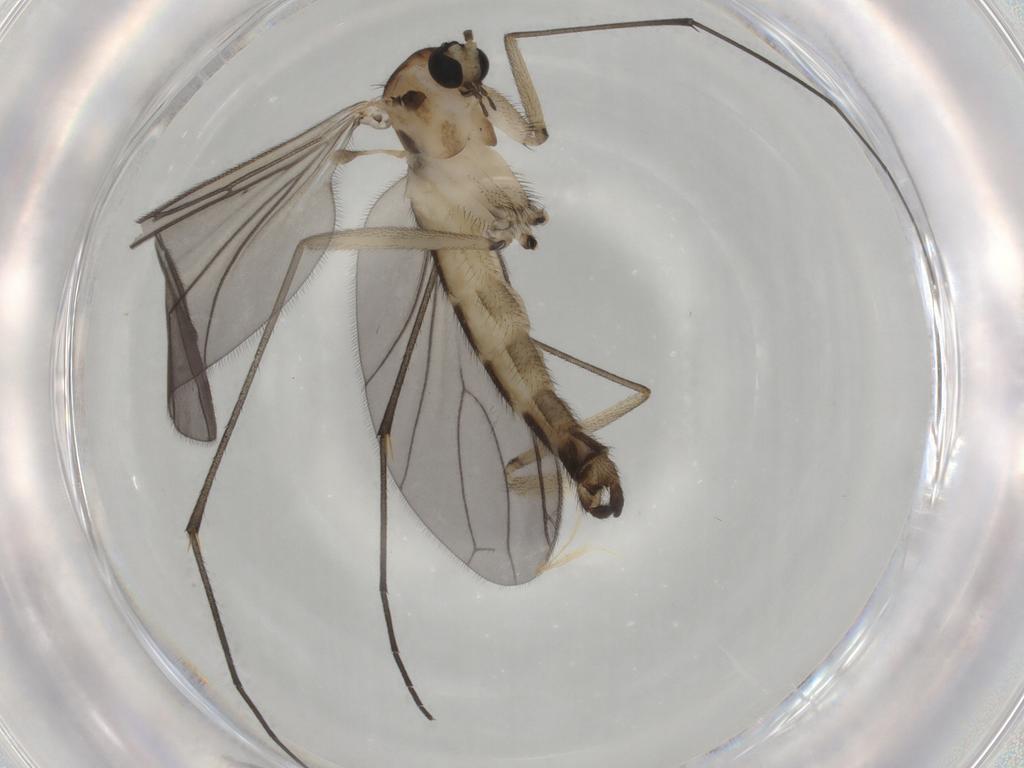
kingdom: Animalia
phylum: Arthropoda
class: Insecta
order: Diptera
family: Sciaridae
